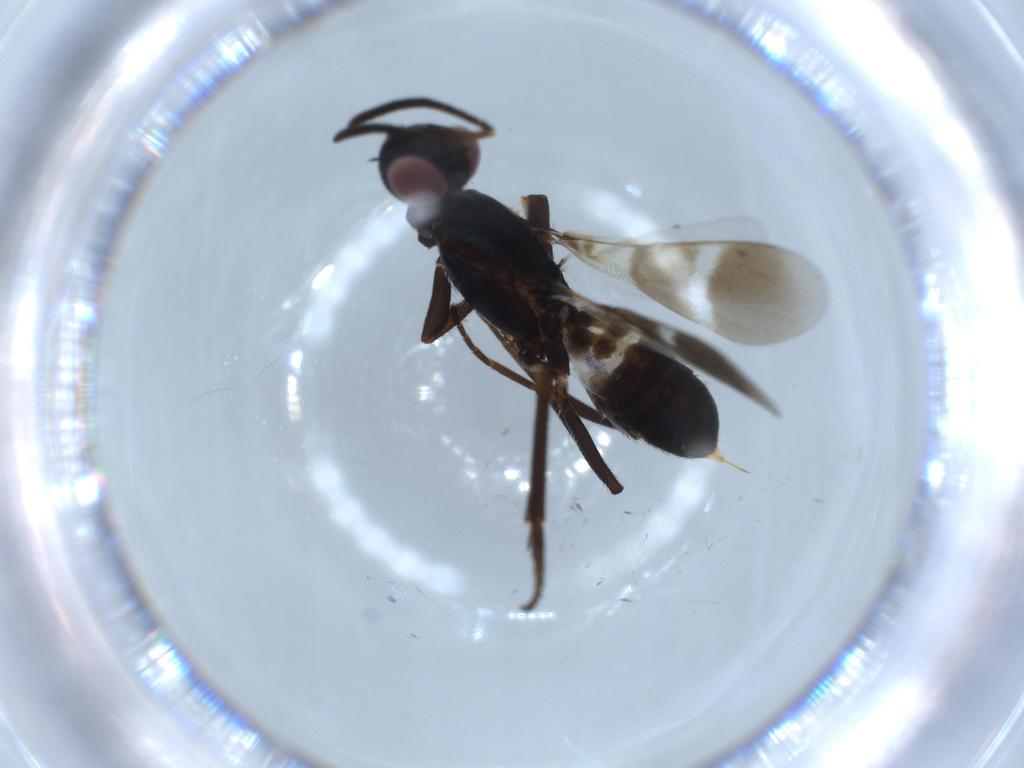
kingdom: Animalia
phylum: Arthropoda
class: Insecta
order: Hymenoptera
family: Eupelmidae
